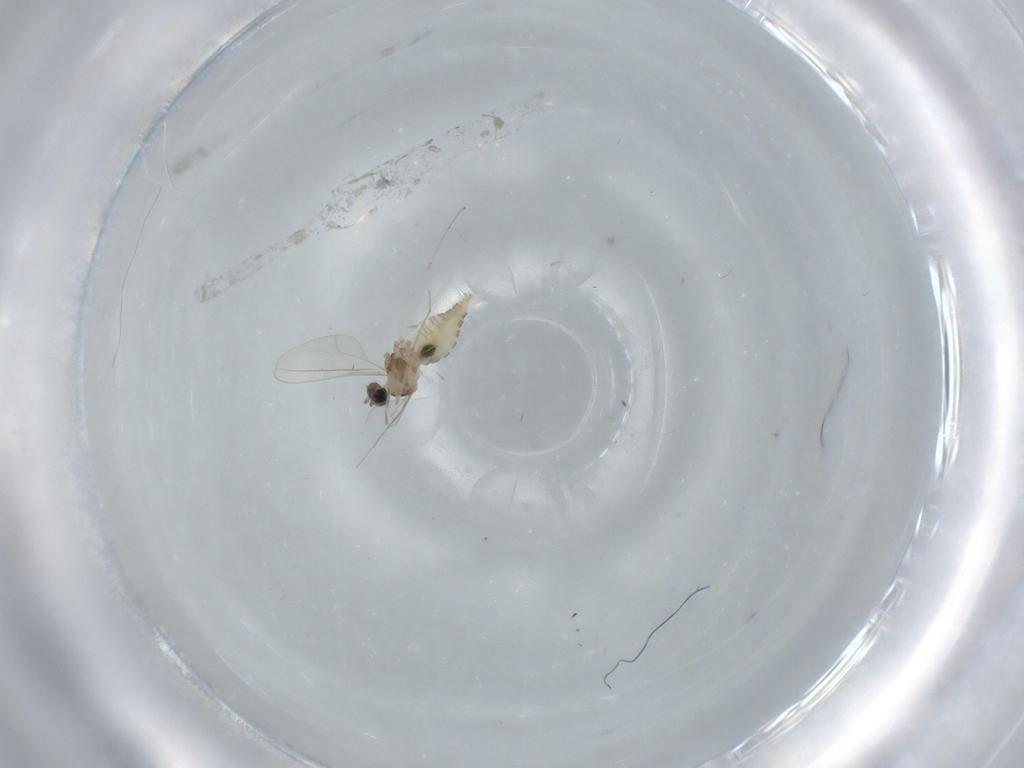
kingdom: Animalia
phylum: Arthropoda
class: Insecta
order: Diptera
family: Cecidomyiidae
